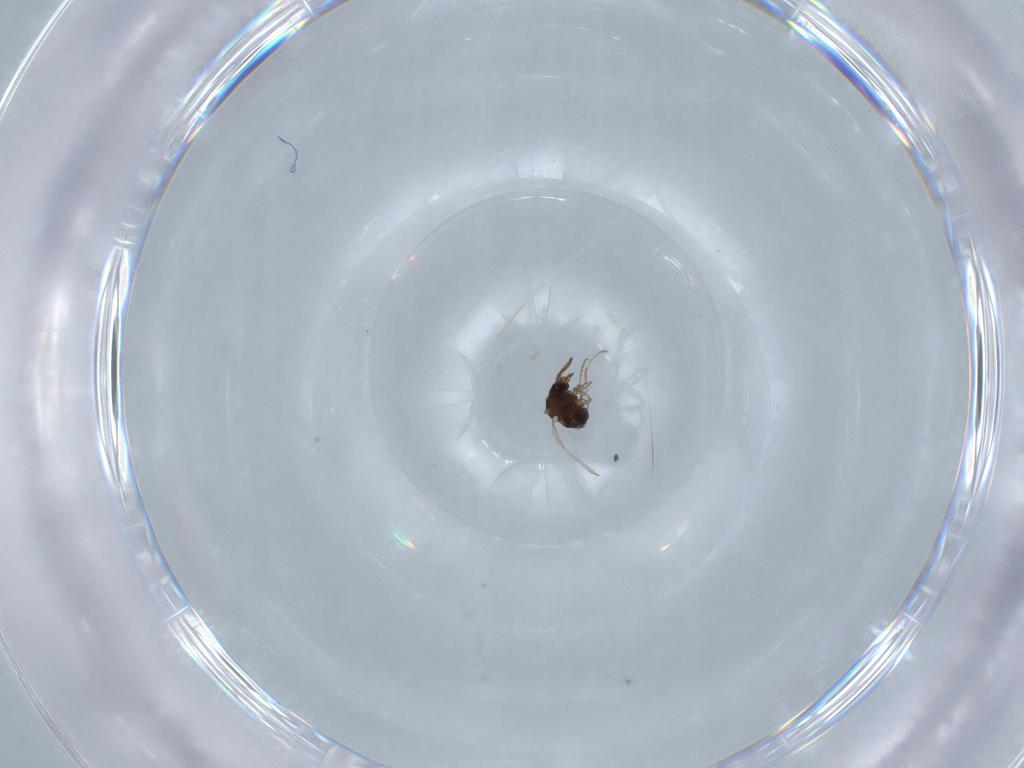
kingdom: Animalia
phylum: Arthropoda
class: Insecta
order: Diptera
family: Ceratopogonidae
